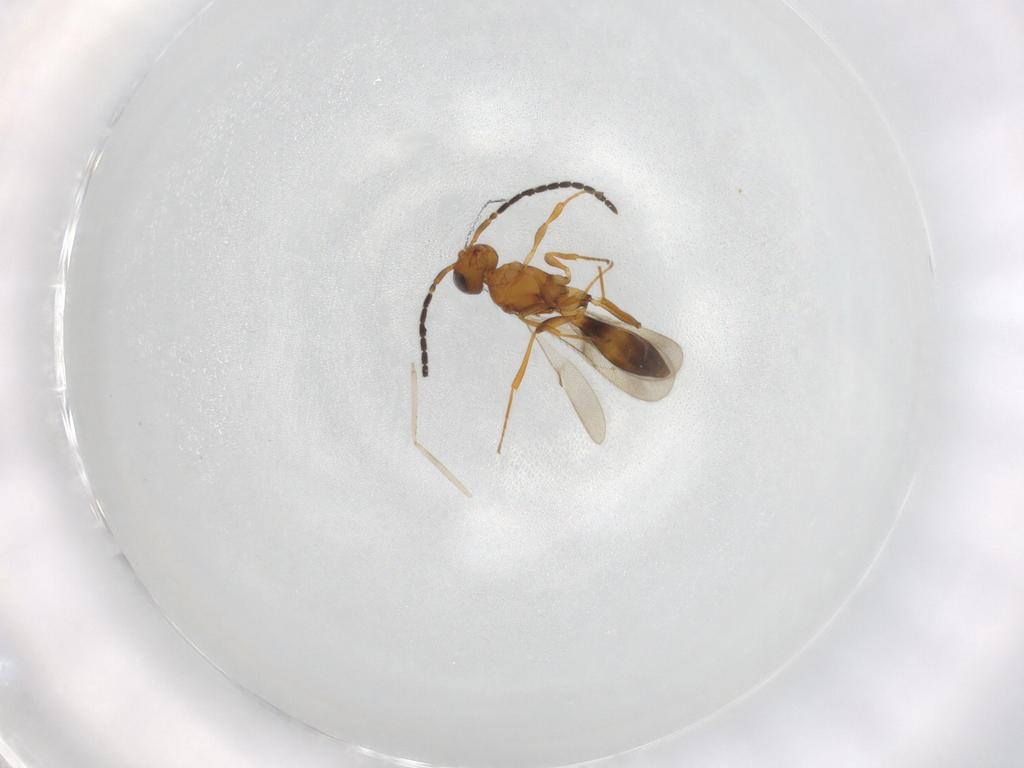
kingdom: Animalia
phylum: Arthropoda
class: Insecta
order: Hymenoptera
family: Scelionidae
